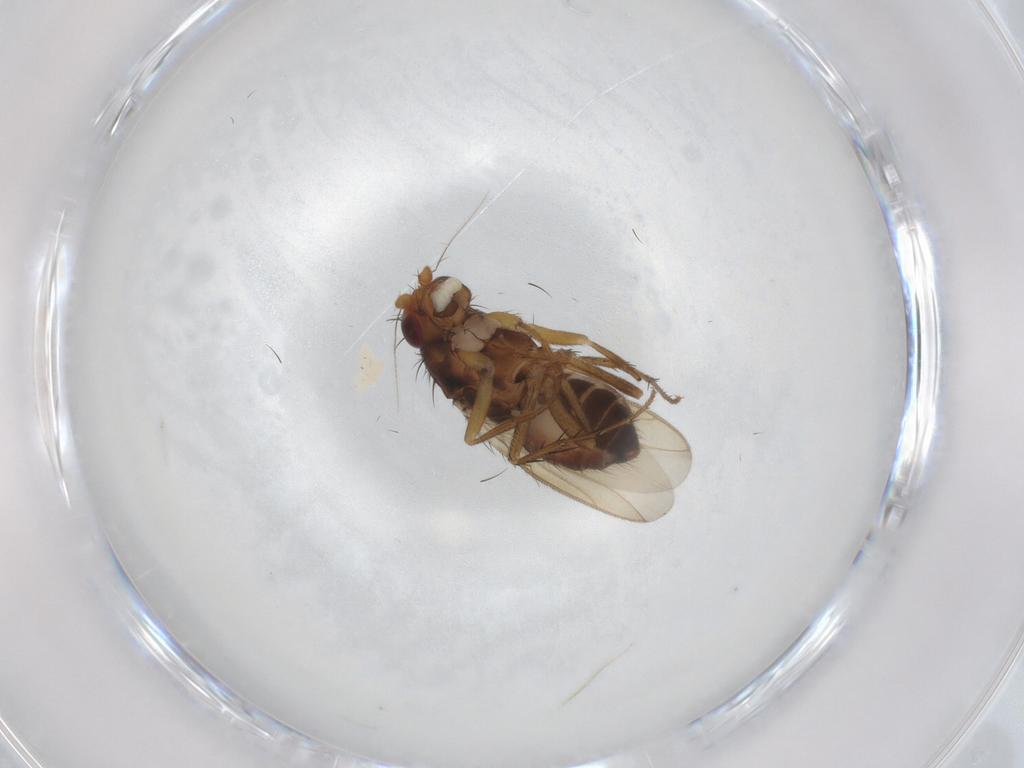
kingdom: Animalia
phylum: Arthropoda
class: Insecta
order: Diptera
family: Sphaeroceridae
